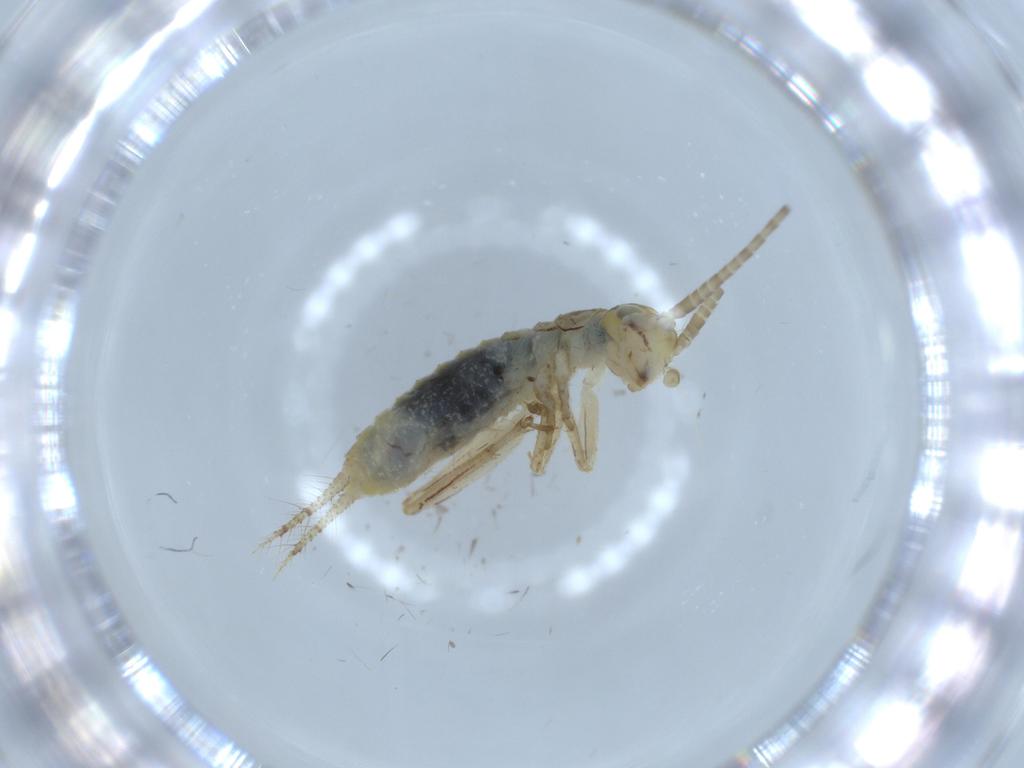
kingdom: Animalia
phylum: Arthropoda
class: Insecta
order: Orthoptera
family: Gryllidae
